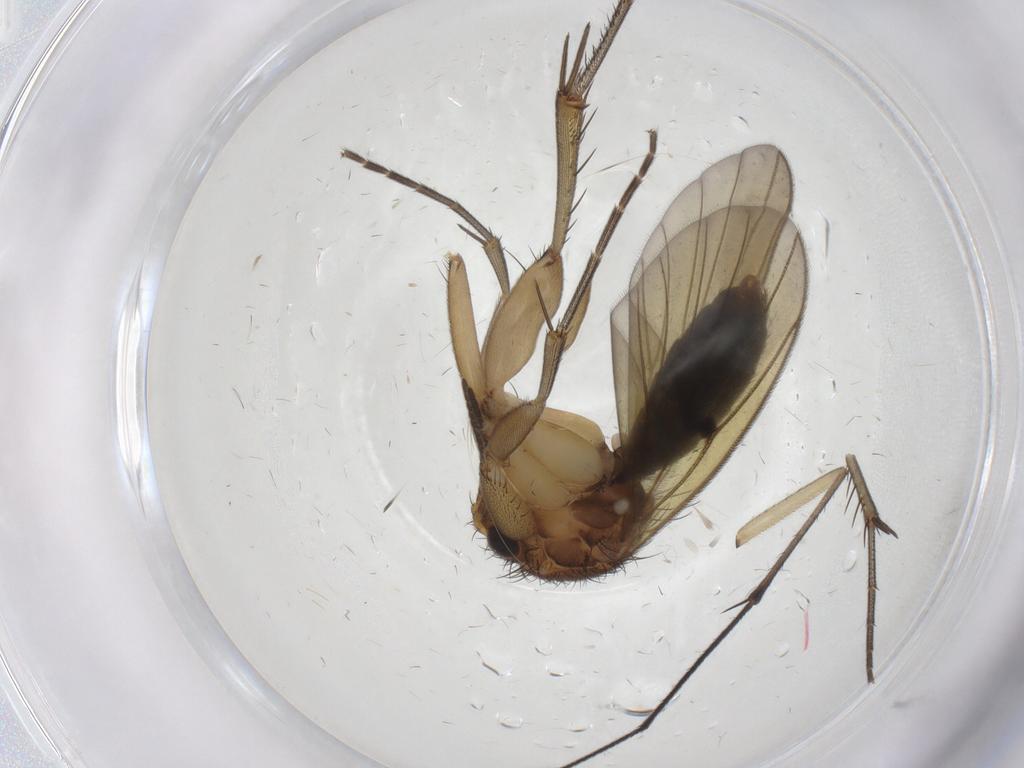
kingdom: Animalia
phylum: Arthropoda
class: Insecta
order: Diptera
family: Mycetophilidae
